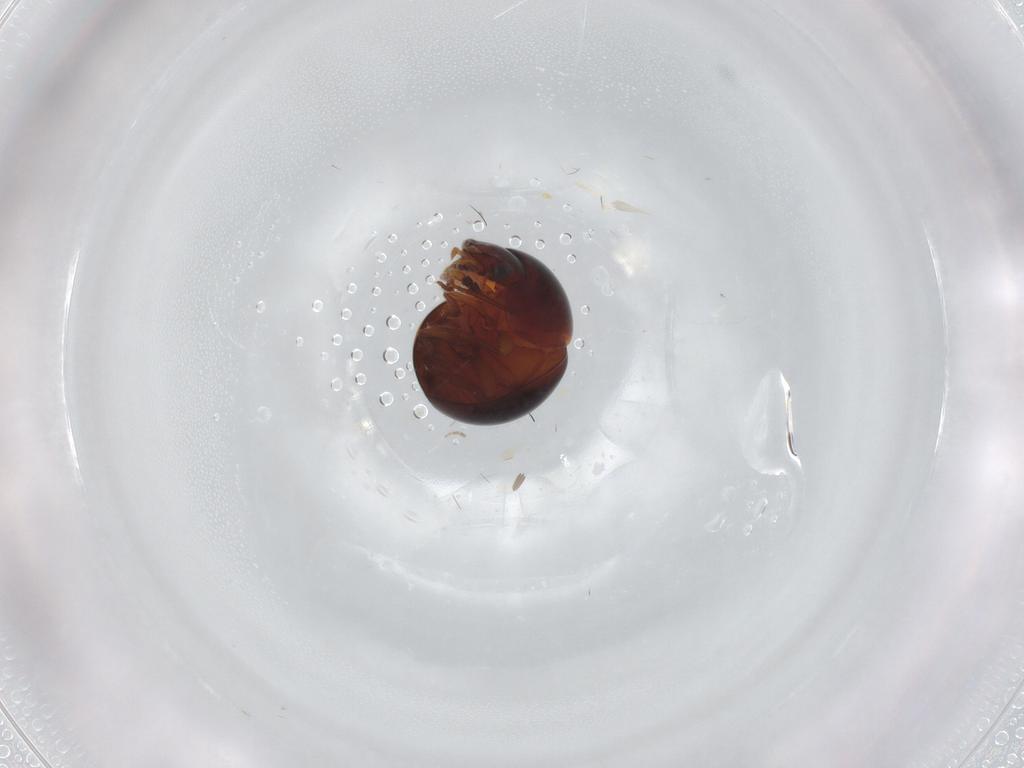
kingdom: Animalia
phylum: Arthropoda
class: Insecta
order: Coleoptera
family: Leiodidae
